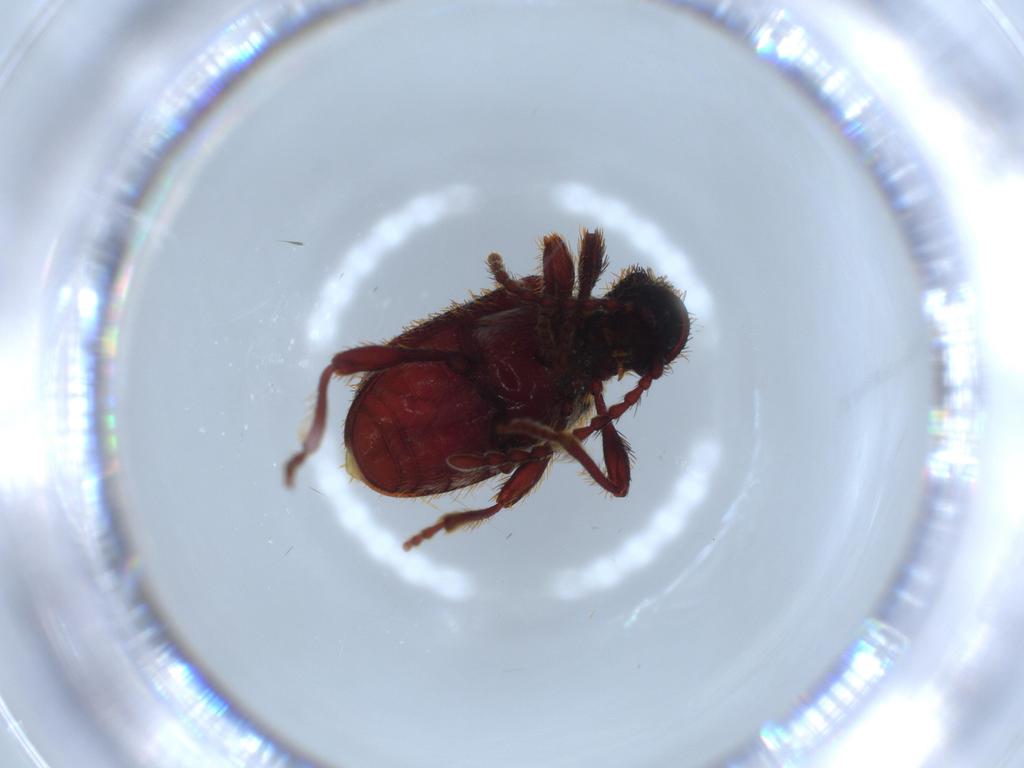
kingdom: Animalia
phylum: Arthropoda
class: Insecta
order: Coleoptera
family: Ptinidae
